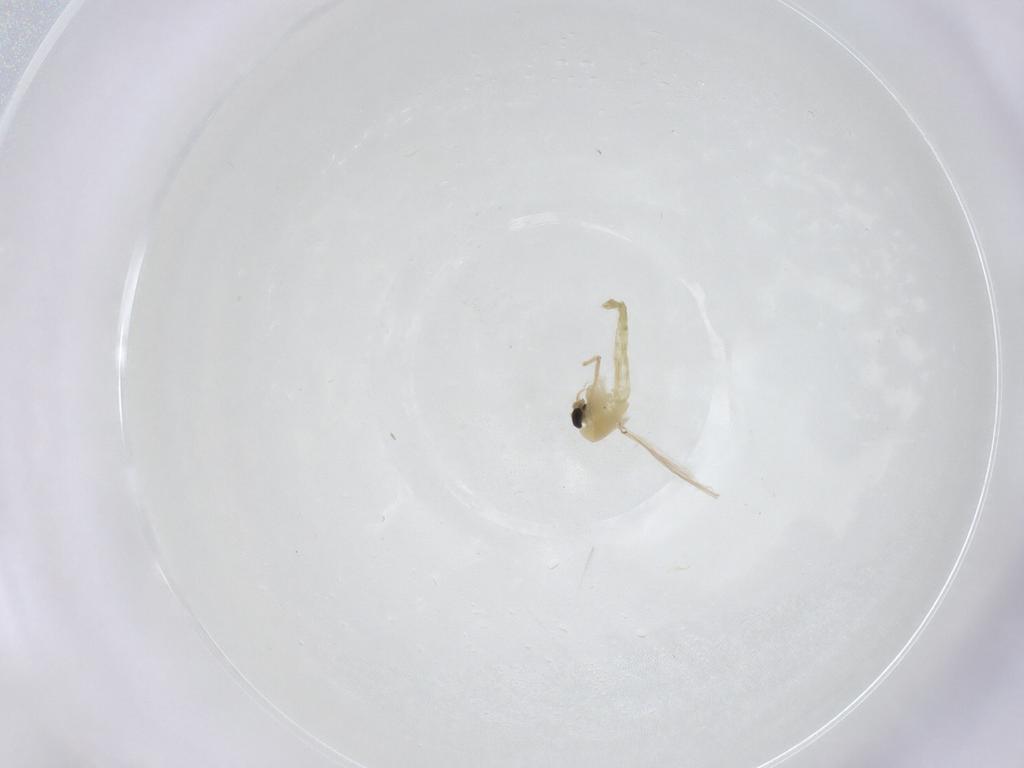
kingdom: Animalia
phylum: Arthropoda
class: Insecta
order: Diptera
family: Chironomidae
